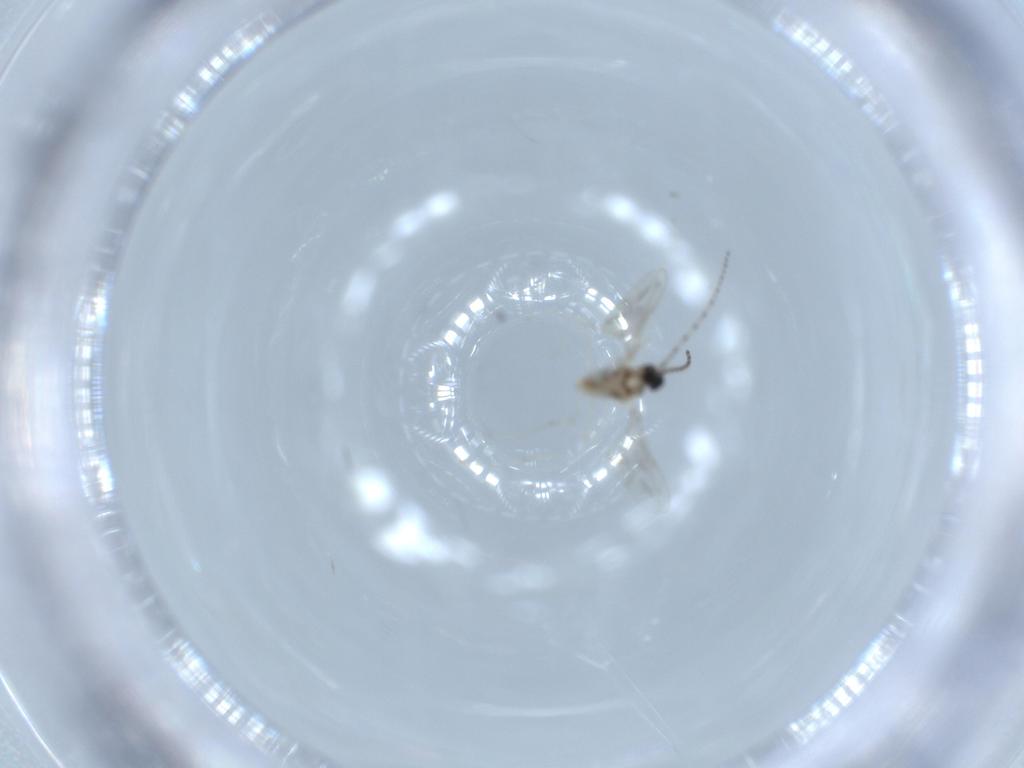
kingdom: Animalia
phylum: Arthropoda
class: Insecta
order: Diptera
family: Cecidomyiidae
